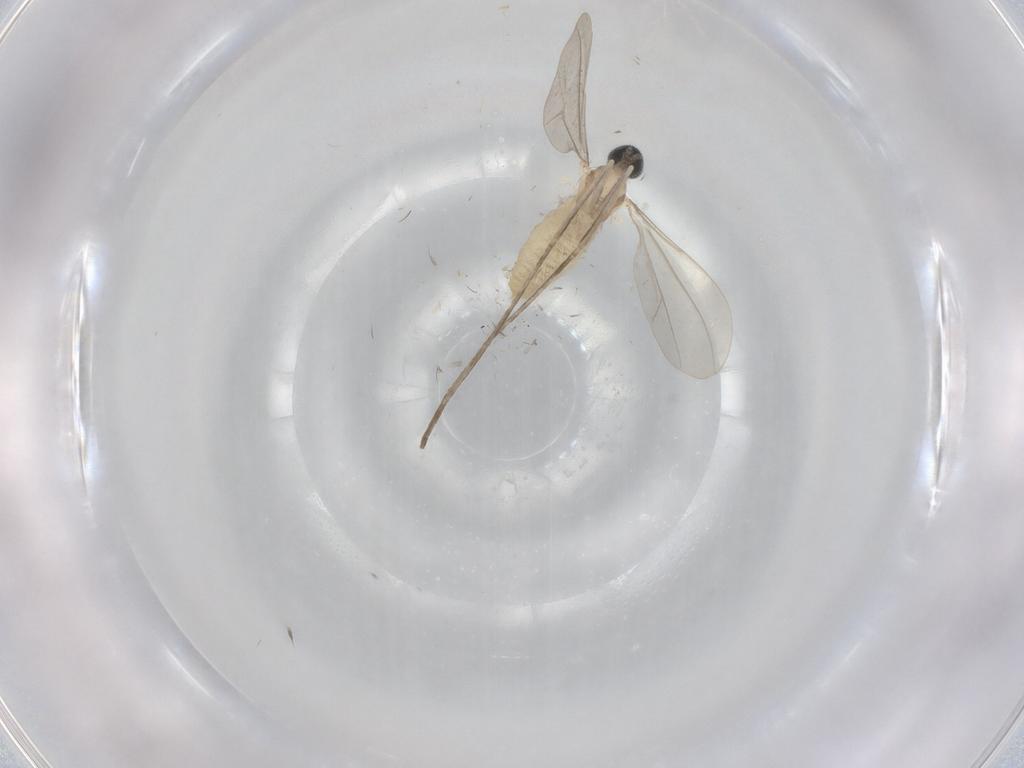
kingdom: Animalia
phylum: Arthropoda
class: Insecta
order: Diptera
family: Cecidomyiidae
